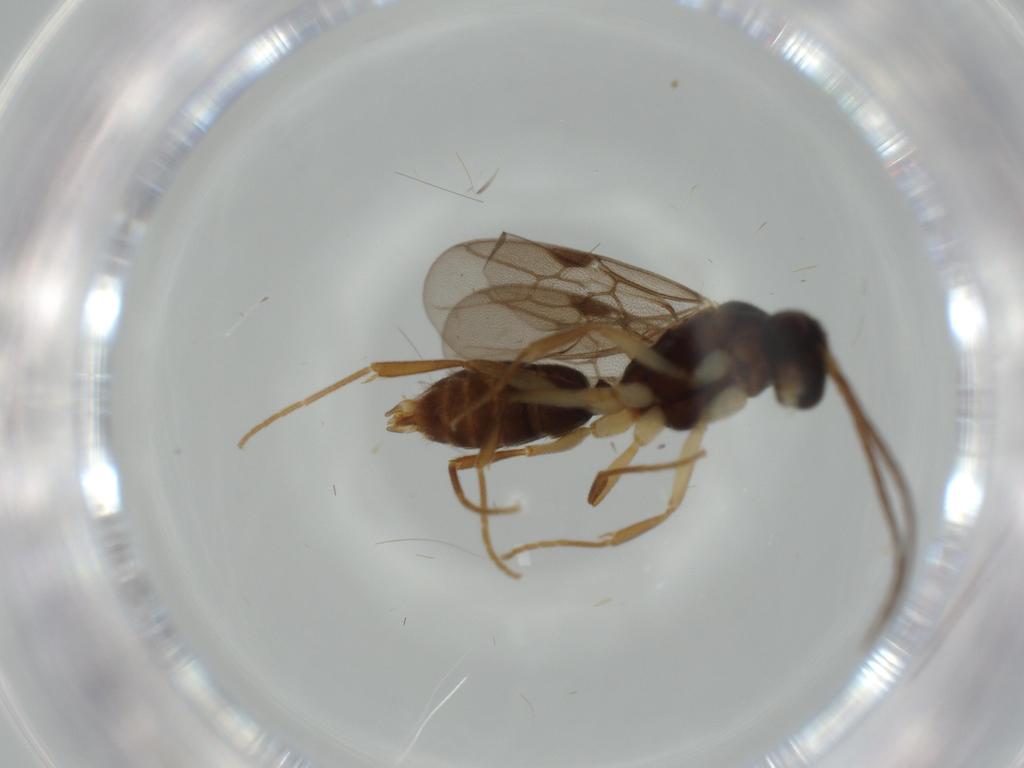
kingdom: Animalia
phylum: Arthropoda
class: Insecta
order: Hymenoptera
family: Formicidae
